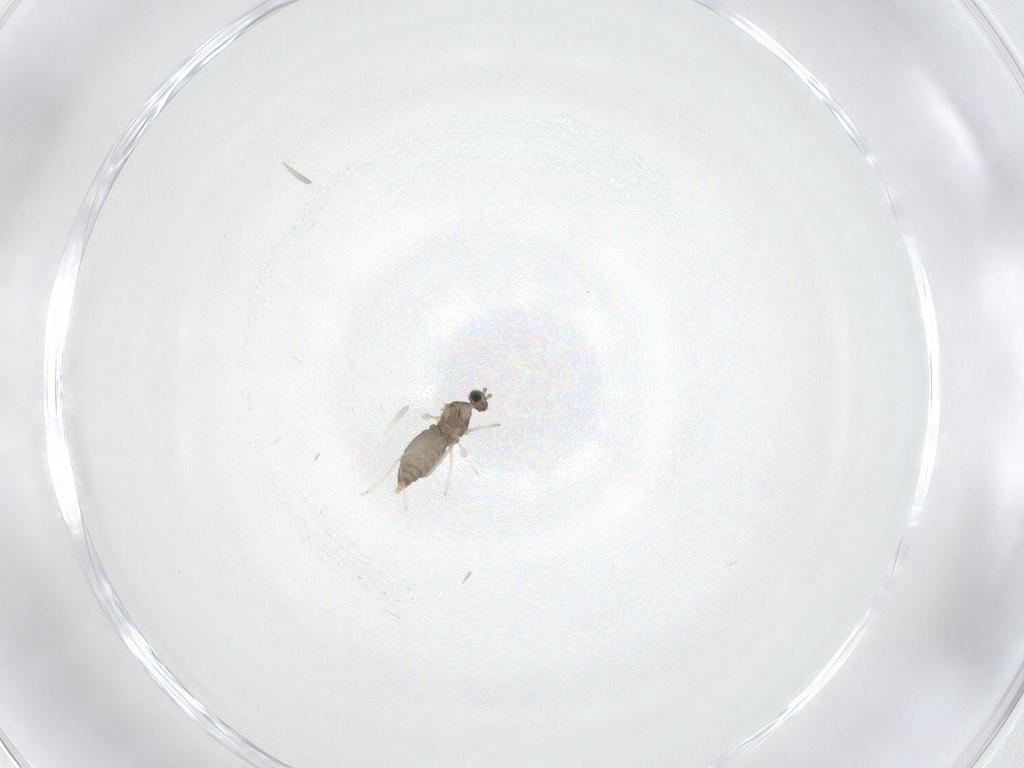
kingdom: Animalia
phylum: Arthropoda
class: Insecta
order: Diptera
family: Cecidomyiidae
